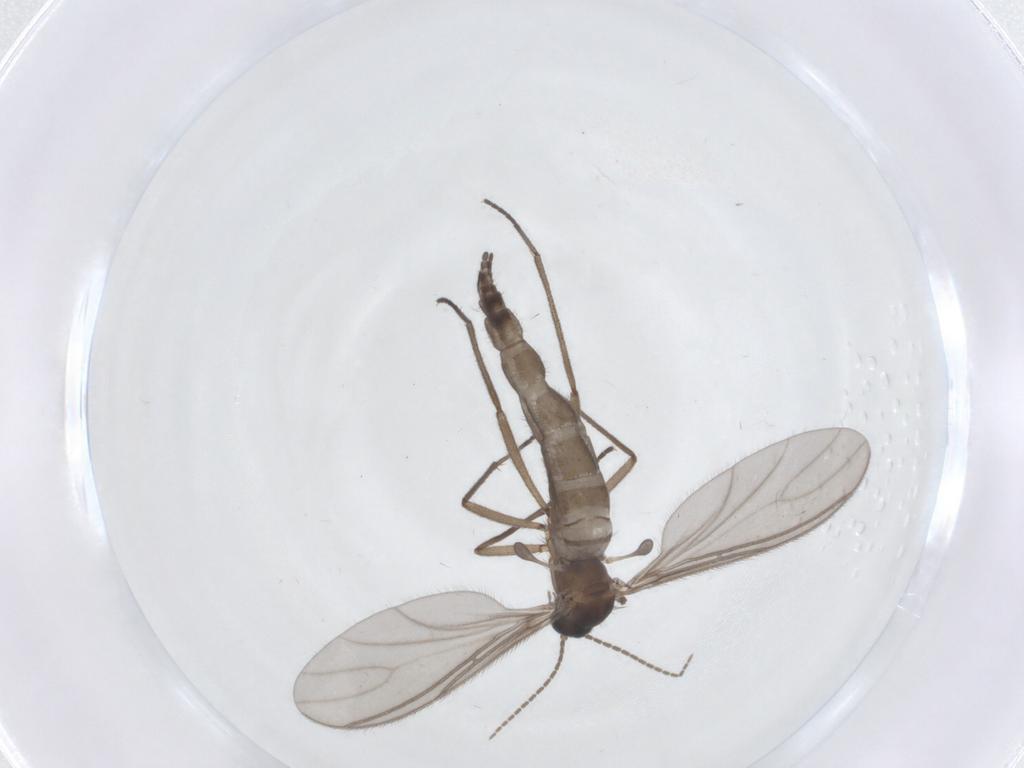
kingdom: Animalia
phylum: Arthropoda
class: Insecta
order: Diptera
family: Sciaridae
